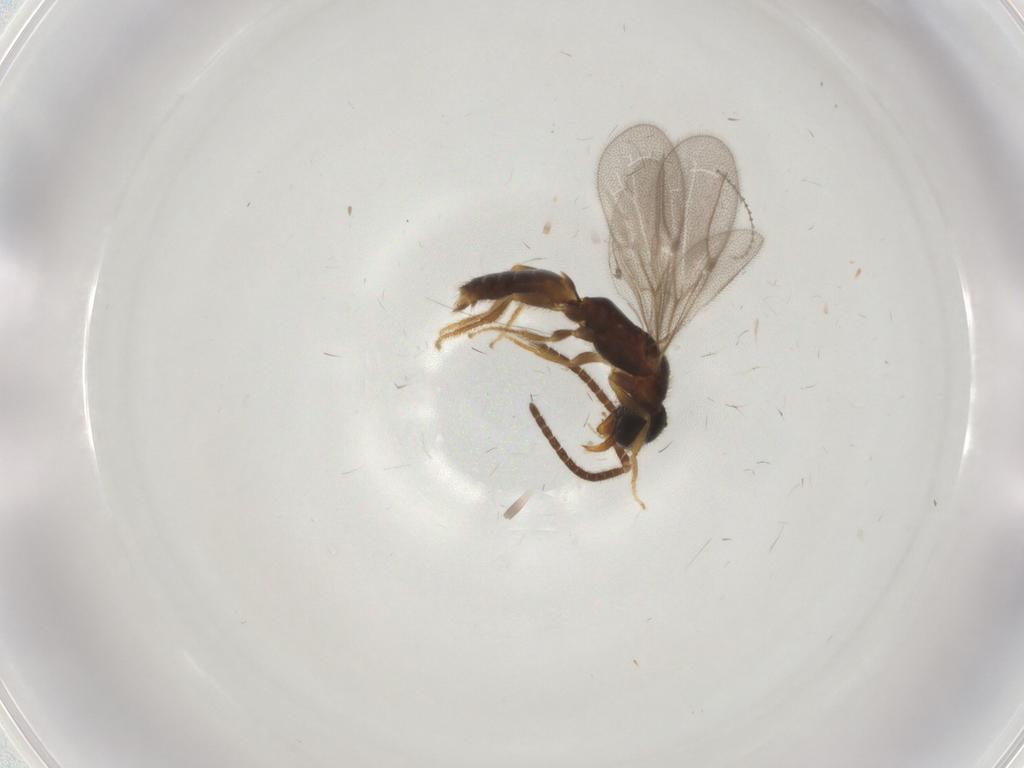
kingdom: Animalia
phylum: Arthropoda
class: Insecta
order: Hymenoptera
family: Bethylidae
